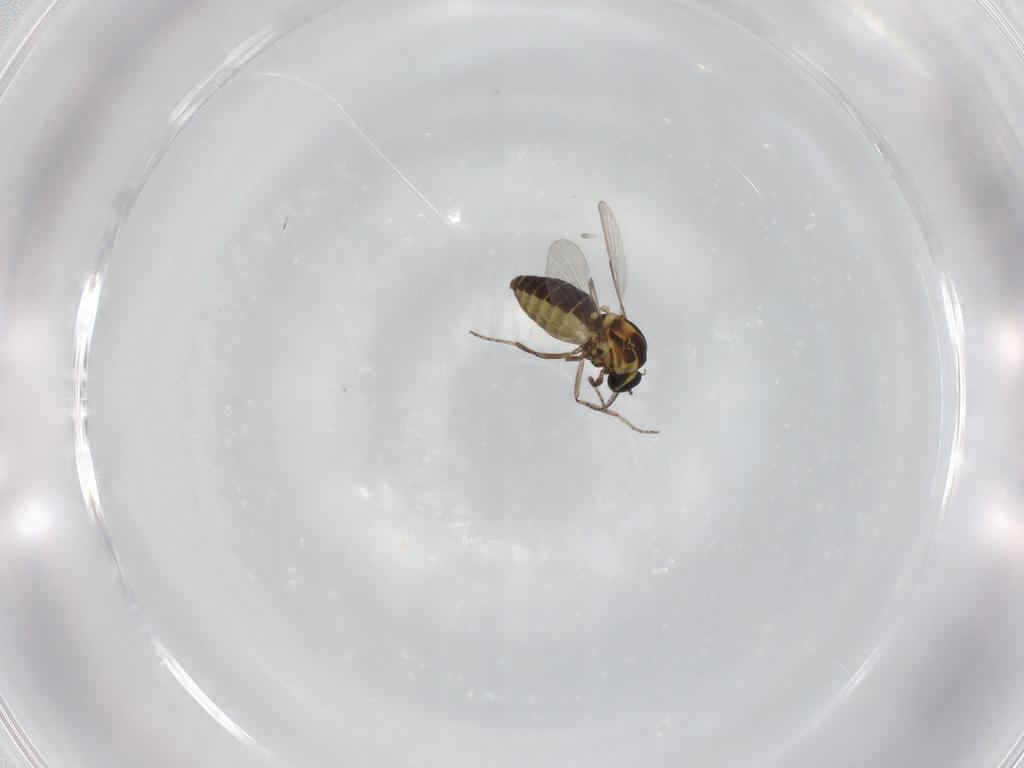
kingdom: Animalia
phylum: Arthropoda
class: Insecta
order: Diptera
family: Ceratopogonidae
